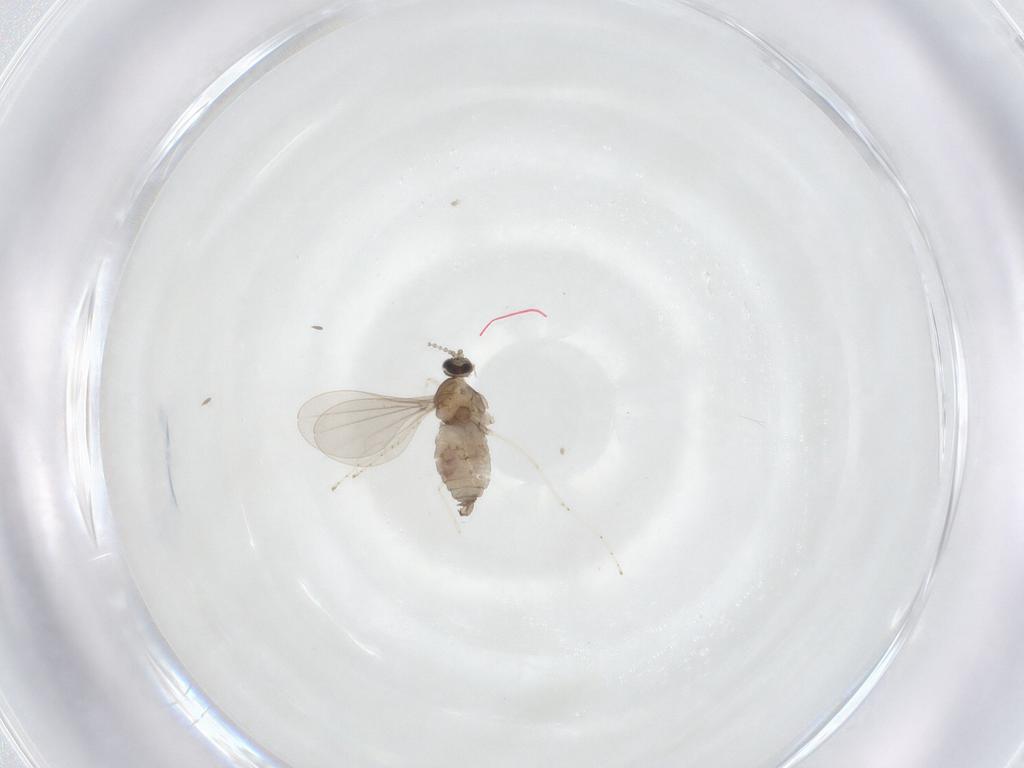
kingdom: Animalia
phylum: Arthropoda
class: Insecta
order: Diptera
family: Cecidomyiidae
